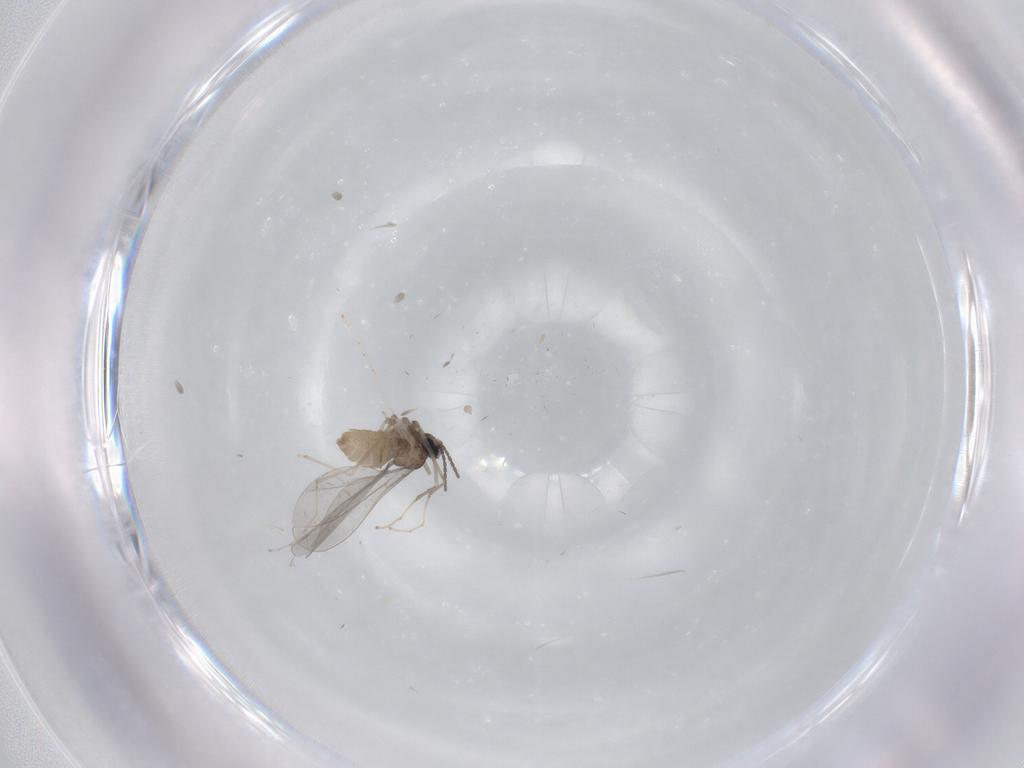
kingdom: Animalia
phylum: Arthropoda
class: Insecta
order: Diptera
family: Cecidomyiidae
